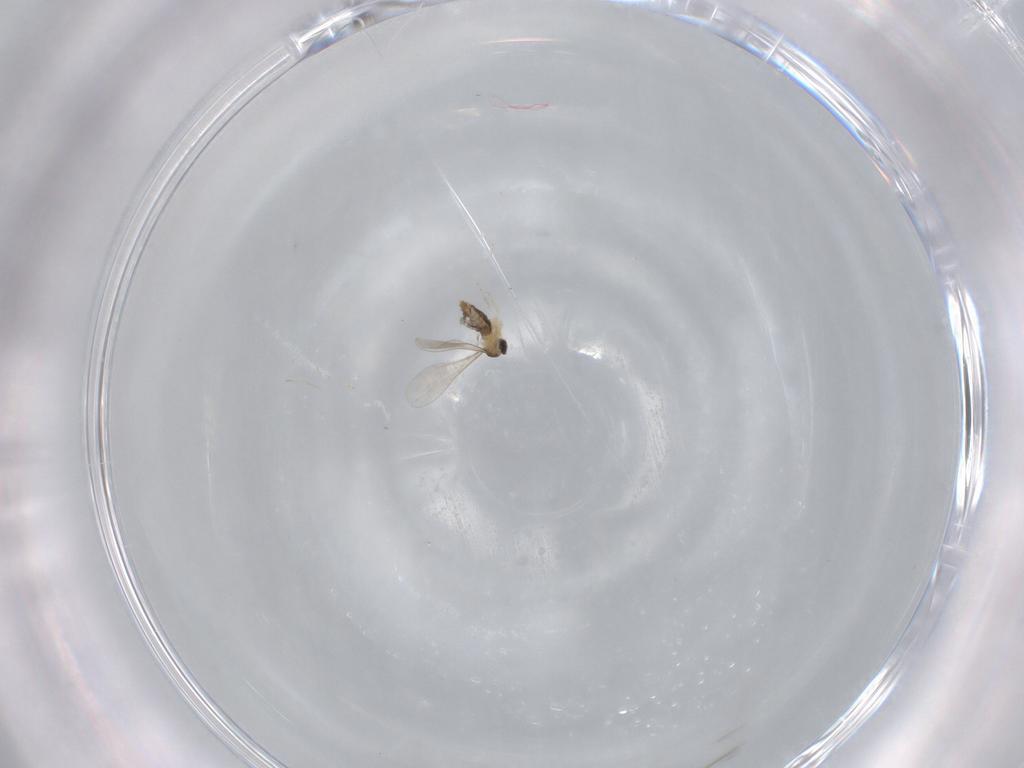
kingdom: Animalia
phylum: Arthropoda
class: Insecta
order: Diptera
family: Cecidomyiidae
